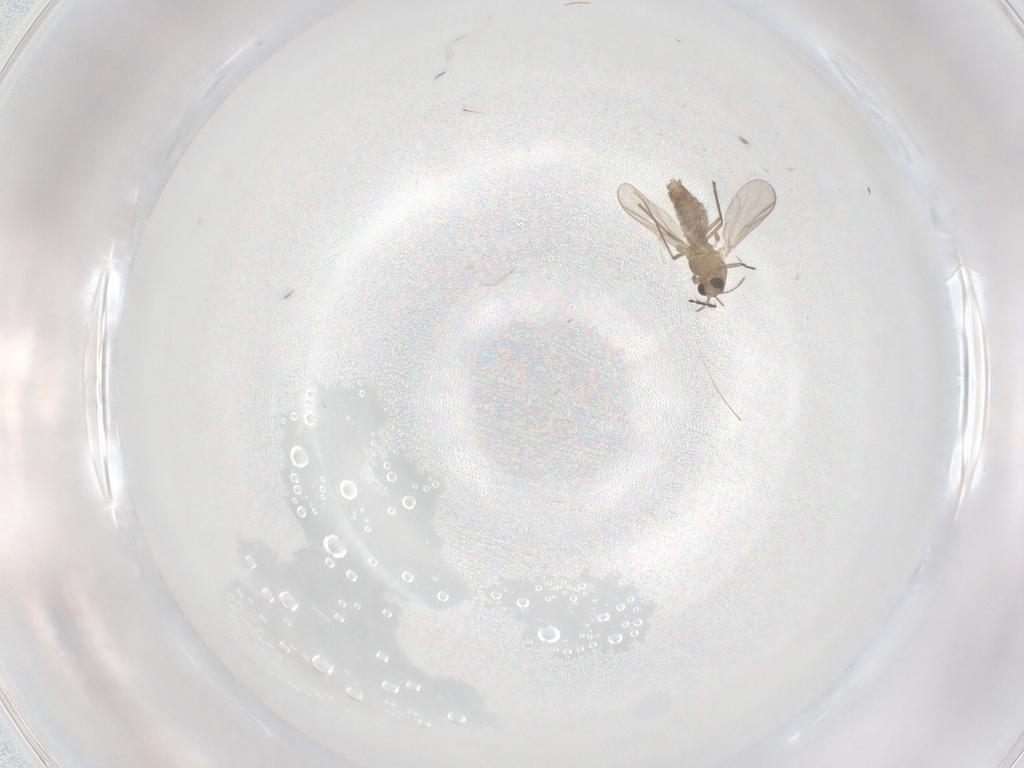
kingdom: Animalia
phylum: Arthropoda
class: Insecta
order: Diptera
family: Chironomidae
